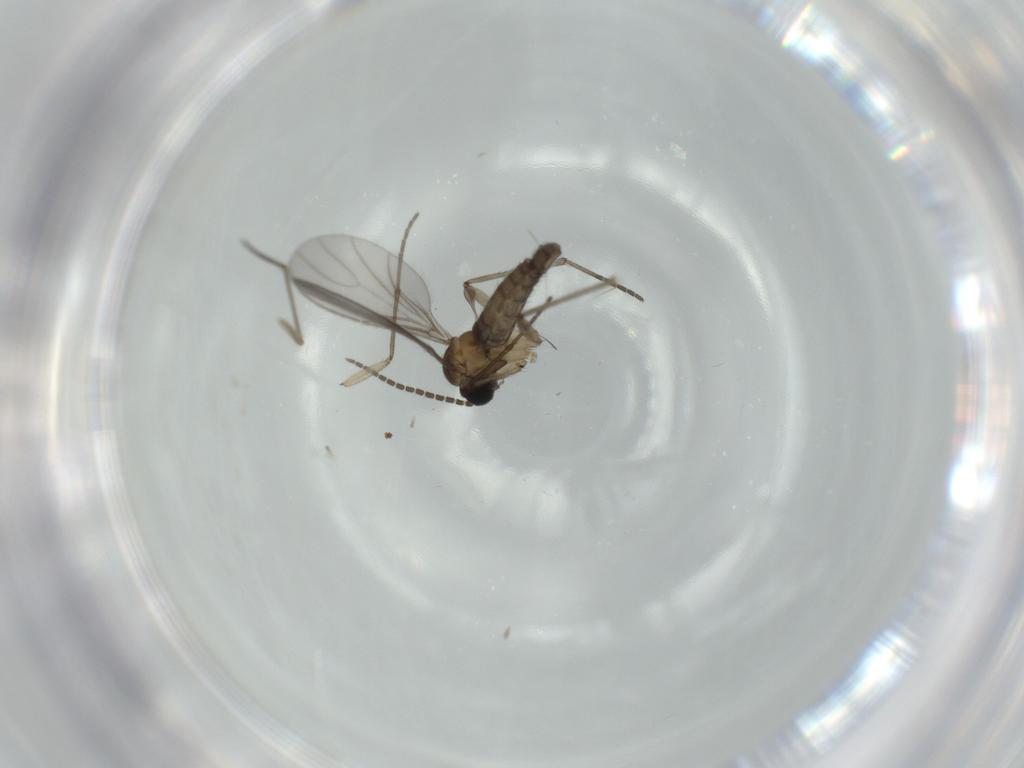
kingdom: Animalia
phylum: Arthropoda
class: Insecta
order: Diptera
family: Sciaridae
